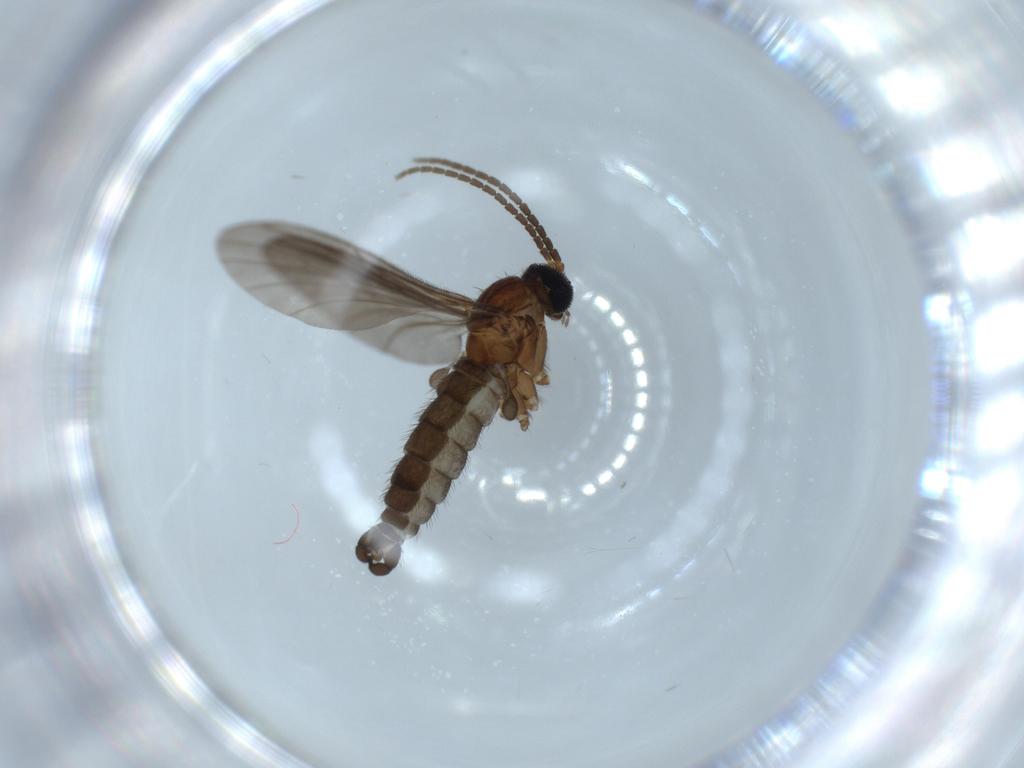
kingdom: Animalia
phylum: Arthropoda
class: Insecta
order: Diptera
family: Sciaridae
